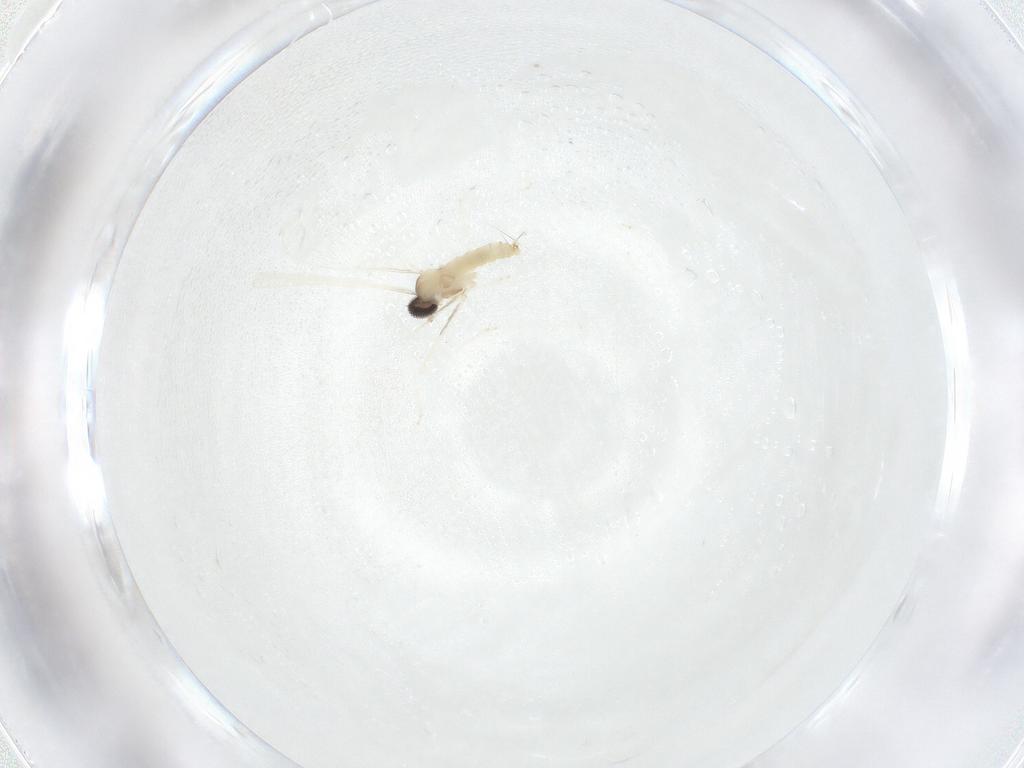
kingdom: Animalia
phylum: Arthropoda
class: Insecta
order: Diptera
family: Cecidomyiidae
